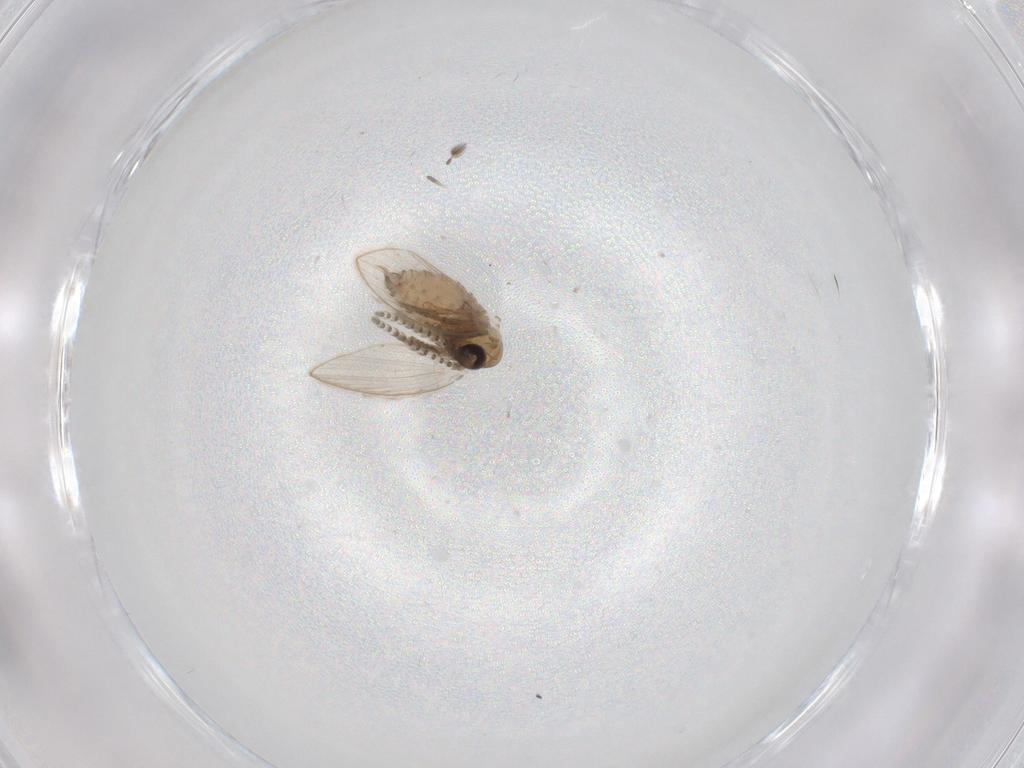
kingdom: Animalia
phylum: Arthropoda
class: Insecta
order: Diptera
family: Psychodidae
